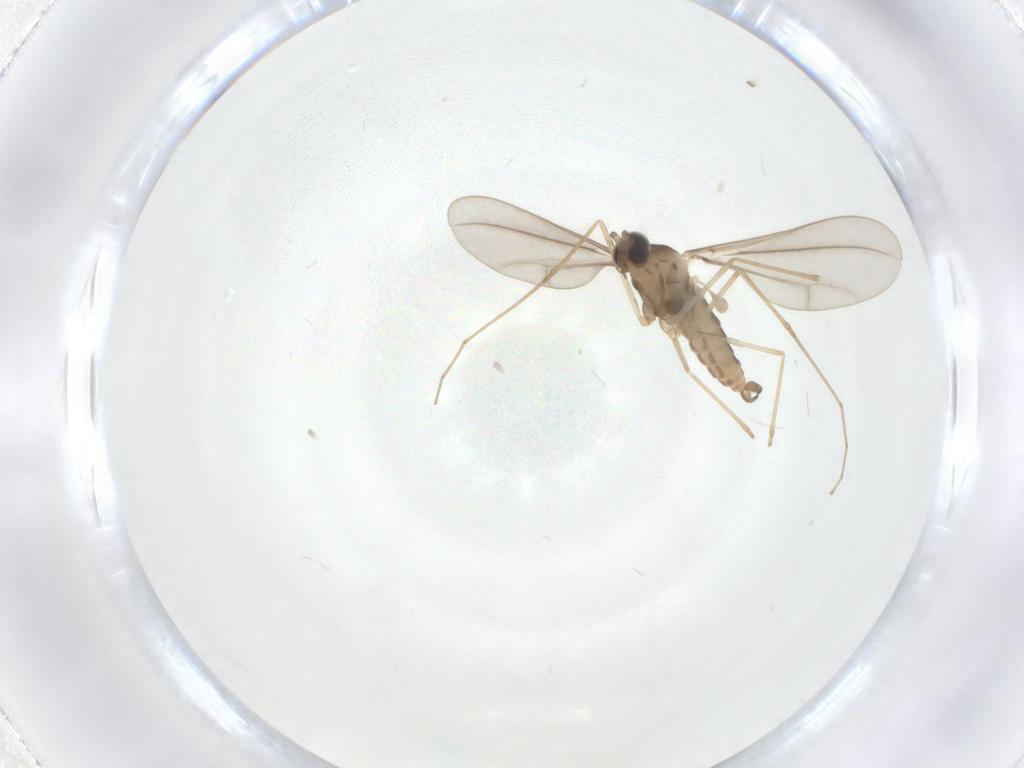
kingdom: Animalia
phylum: Arthropoda
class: Insecta
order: Diptera
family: Cecidomyiidae
